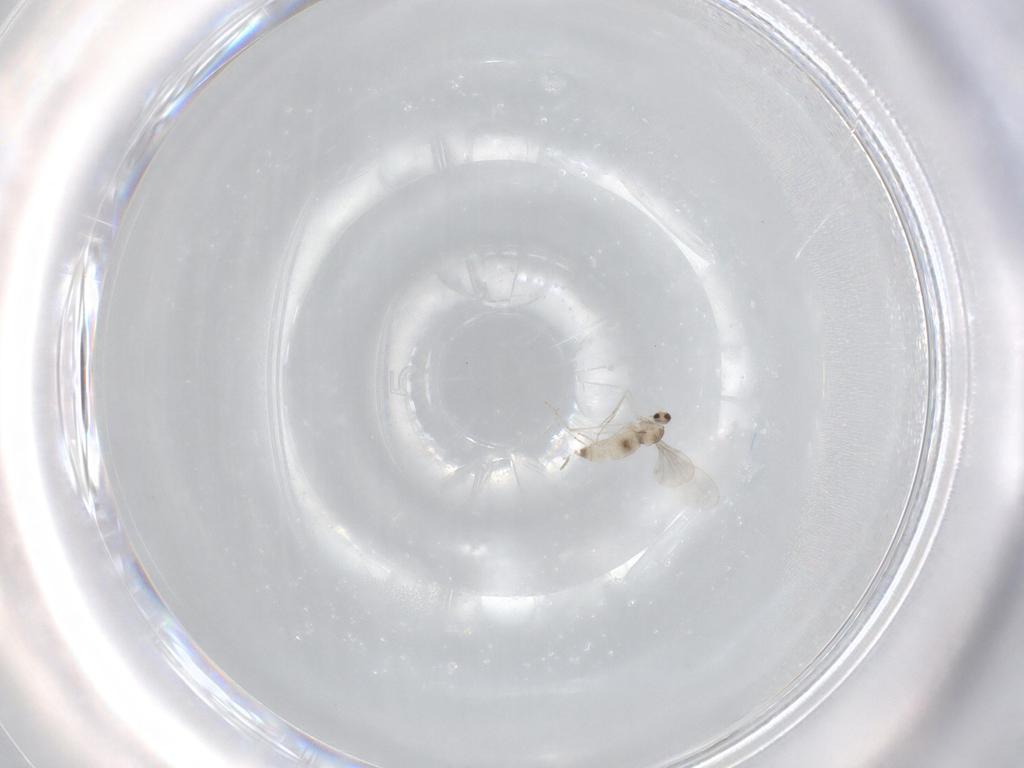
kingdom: Animalia
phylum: Arthropoda
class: Insecta
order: Diptera
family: Cecidomyiidae
